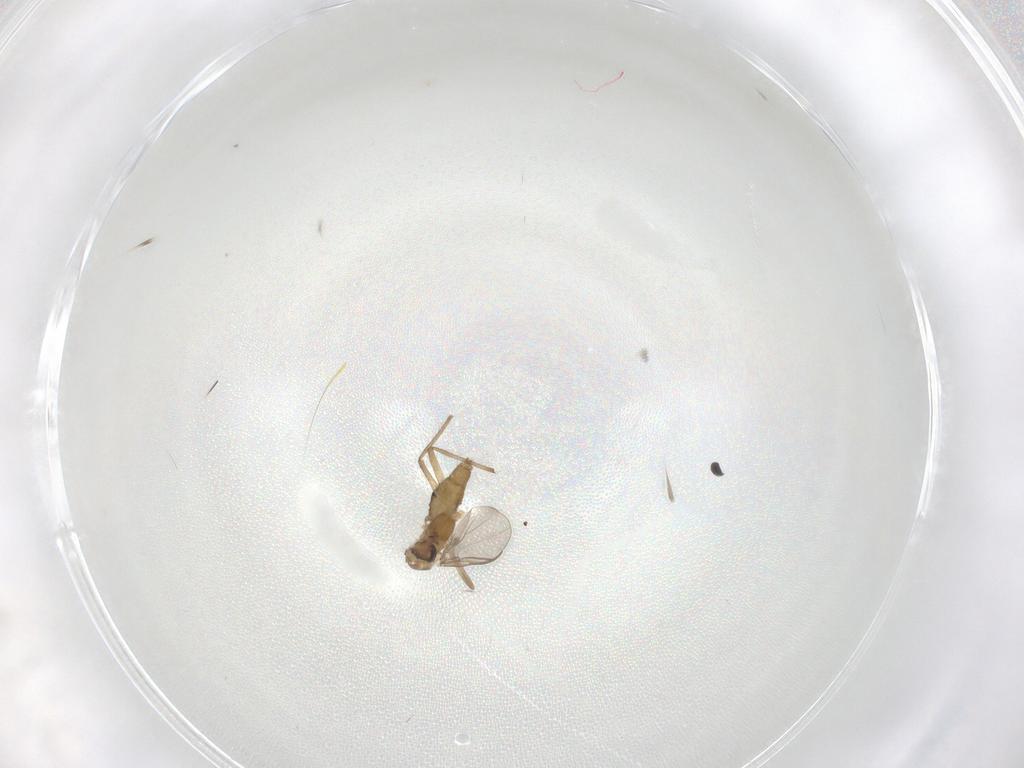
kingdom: Animalia
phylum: Arthropoda
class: Insecta
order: Diptera
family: Chironomidae
